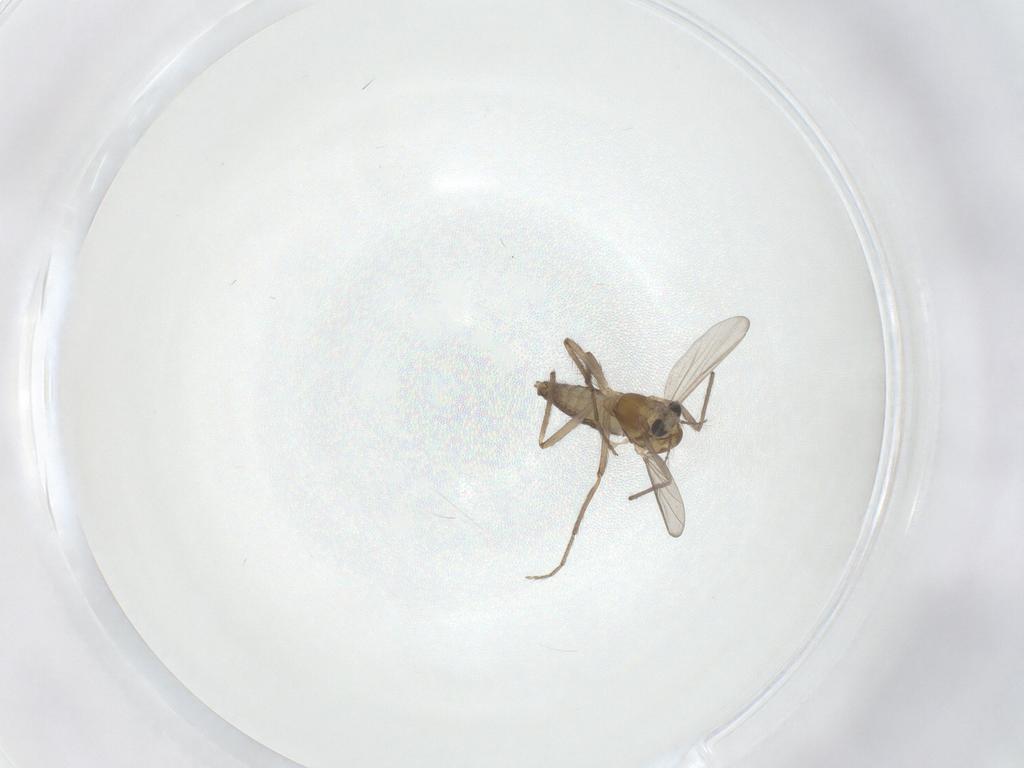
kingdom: Animalia
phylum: Arthropoda
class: Insecta
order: Diptera
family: Chironomidae
